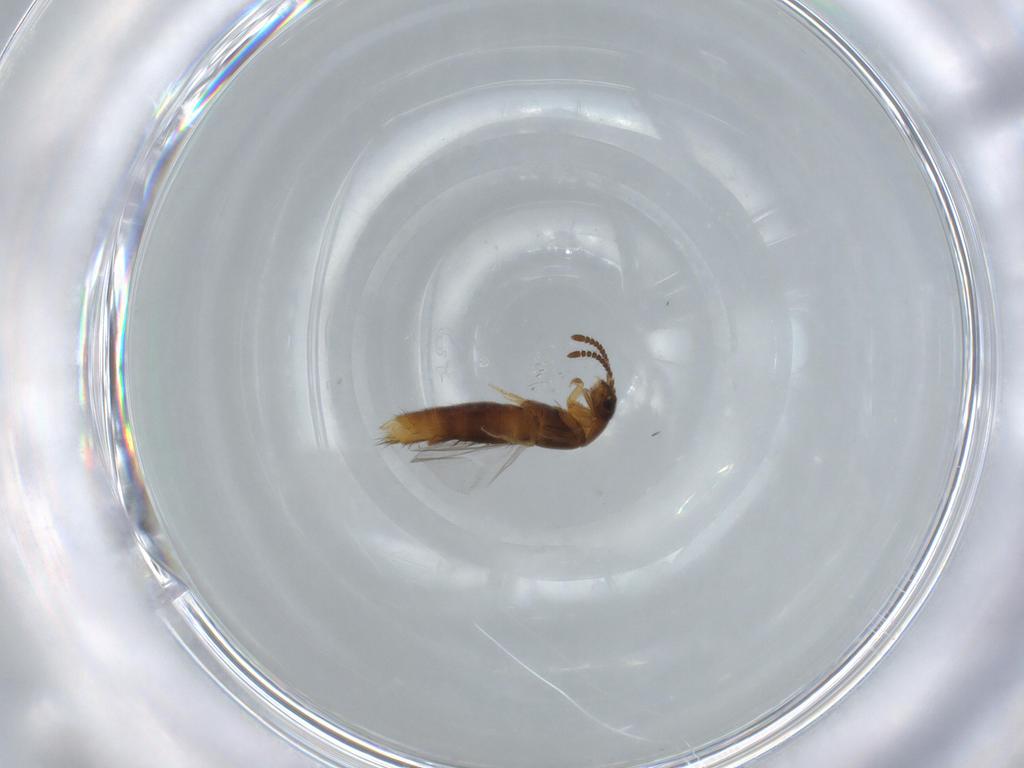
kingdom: Animalia
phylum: Arthropoda
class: Insecta
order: Coleoptera
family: Staphylinidae
